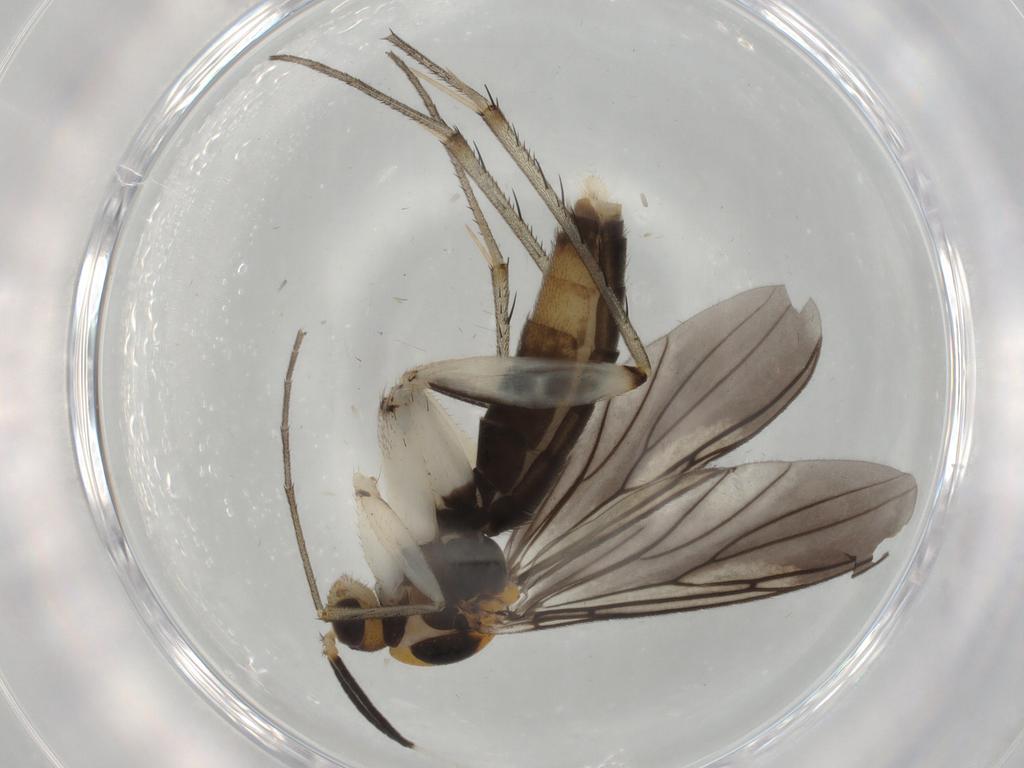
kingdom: Animalia
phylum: Arthropoda
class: Insecta
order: Diptera
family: Mycetophilidae
